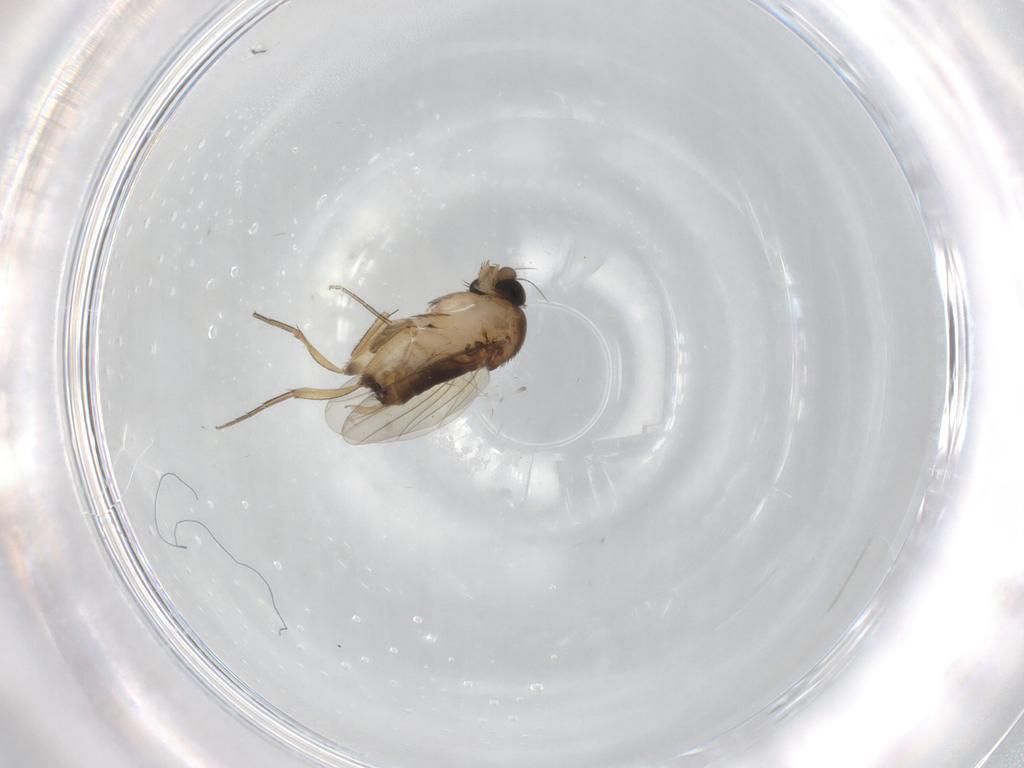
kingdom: Animalia
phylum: Arthropoda
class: Insecta
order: Diptera
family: Phoridae
